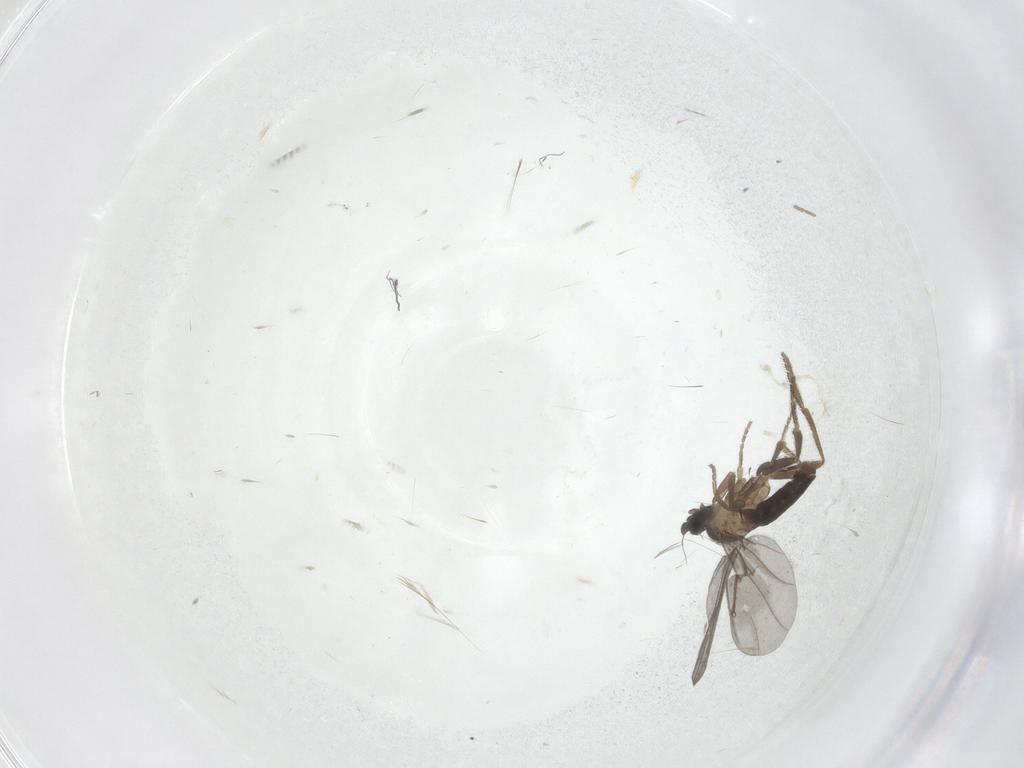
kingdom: Animalia
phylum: Arthropoda
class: Insecta
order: Diptera
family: Phoridae
